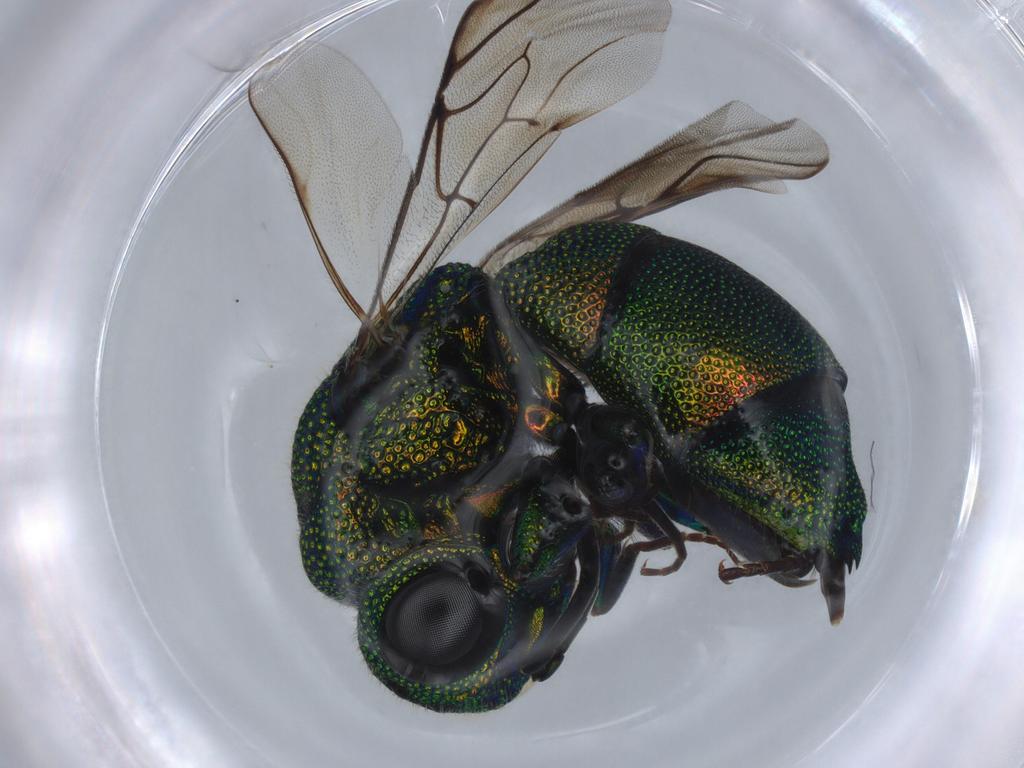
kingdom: Animalia
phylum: Arthropoda
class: Insecta
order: Hymenoptera
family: Chrysididae
